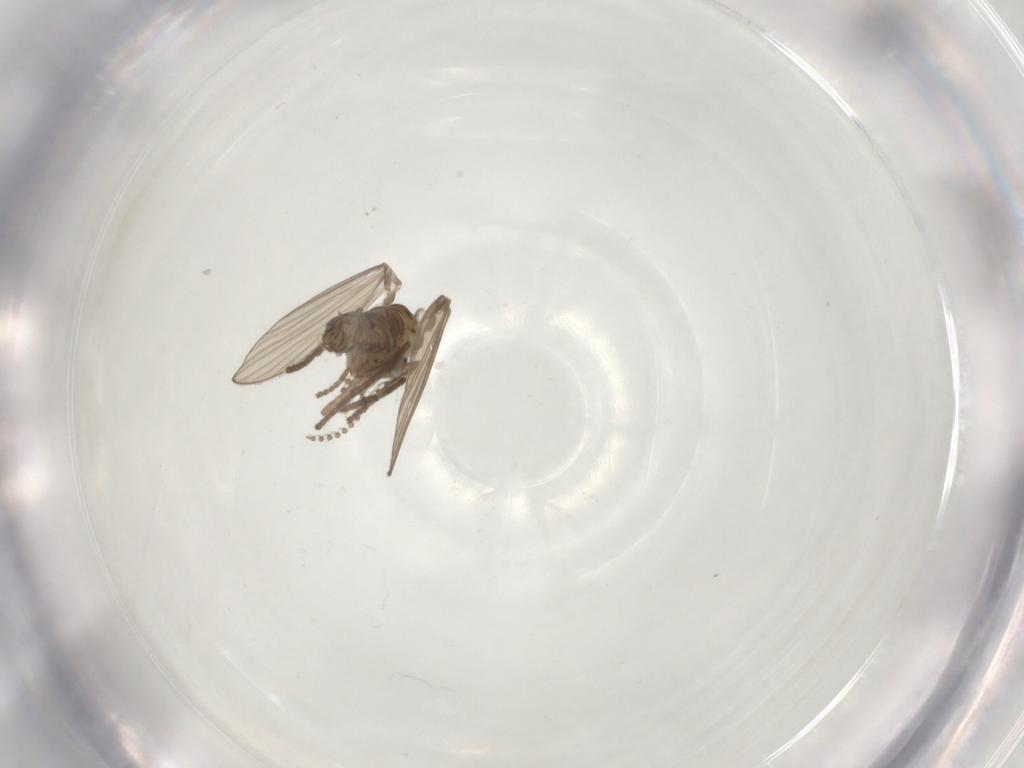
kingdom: Animalia
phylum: Arthropoda
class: Insecta
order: Diptera
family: Psychodidae
